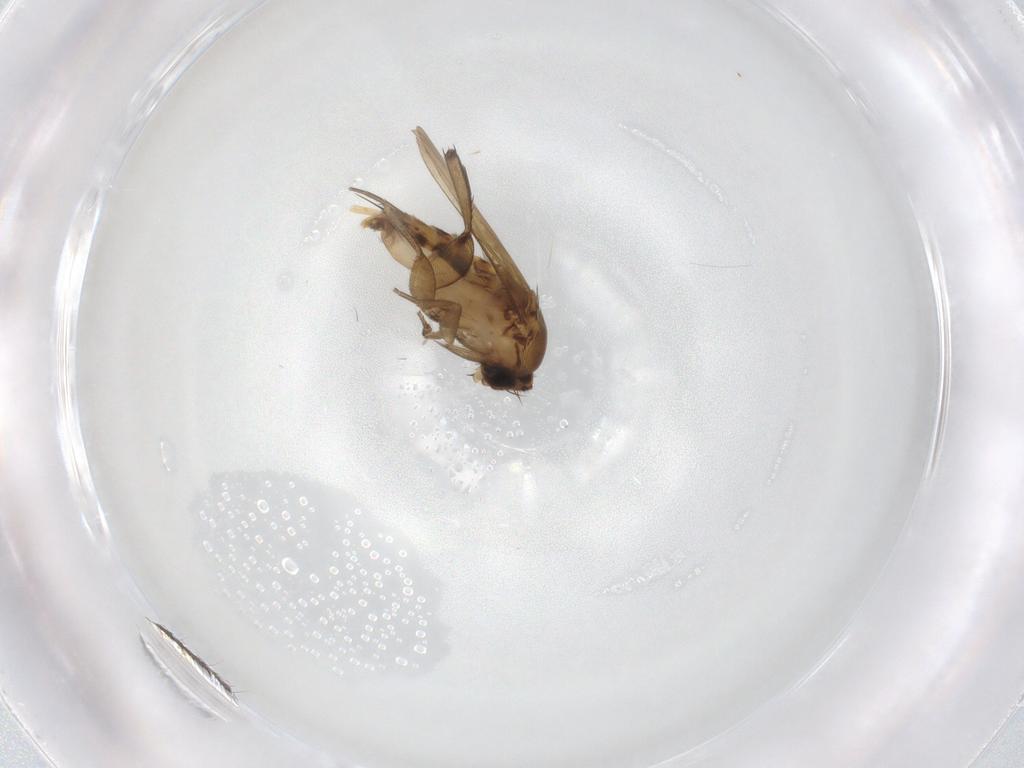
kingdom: Animalia
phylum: Arthropoda
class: Insecta
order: Diptera
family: Phoridae
